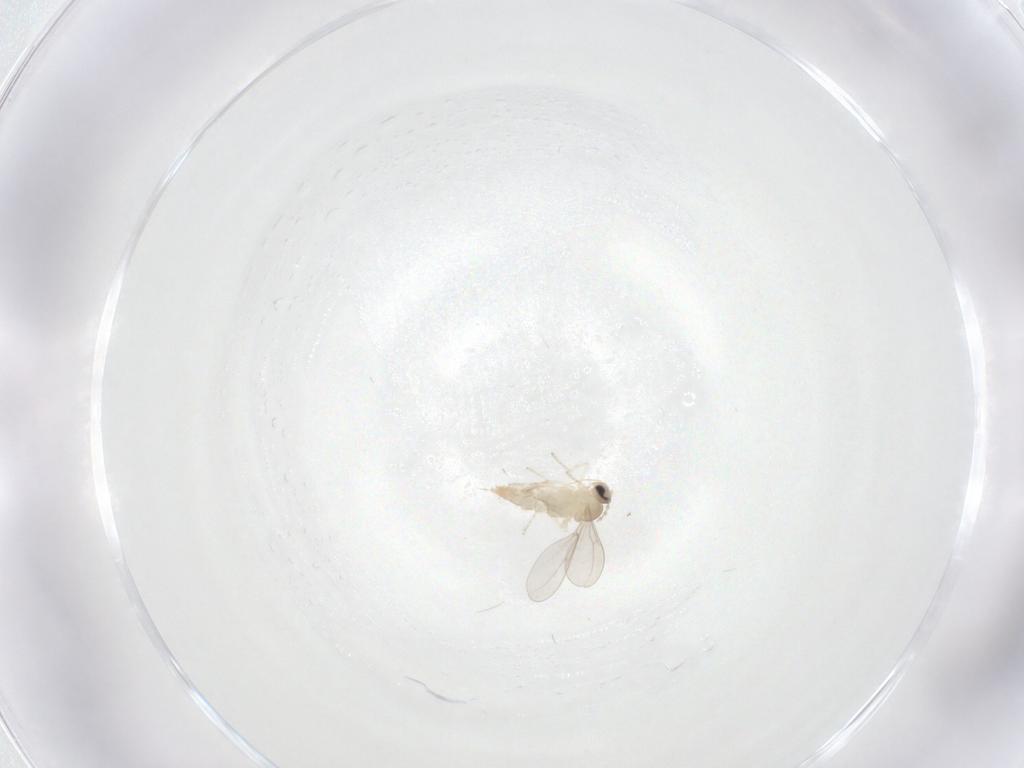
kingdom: Animalia
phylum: Arthropoda
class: Insecta
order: Diptera
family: Cecidomyiidae
